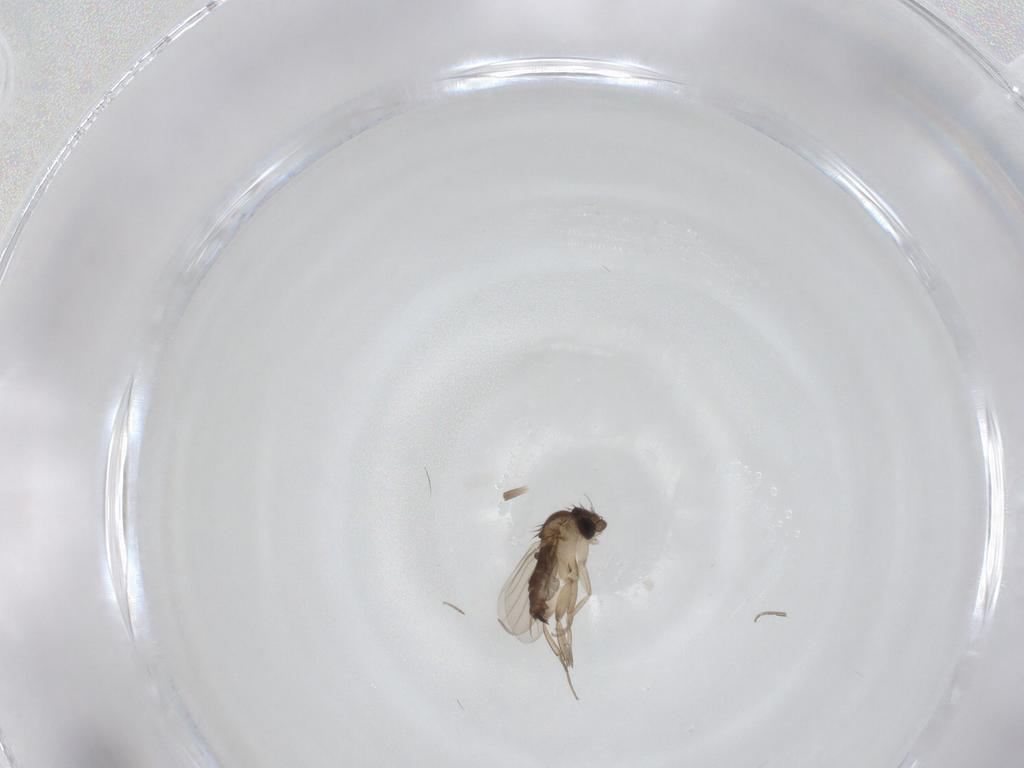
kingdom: Animalia
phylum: Arthropoda
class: Insecta
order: Diptera
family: Phoridae
